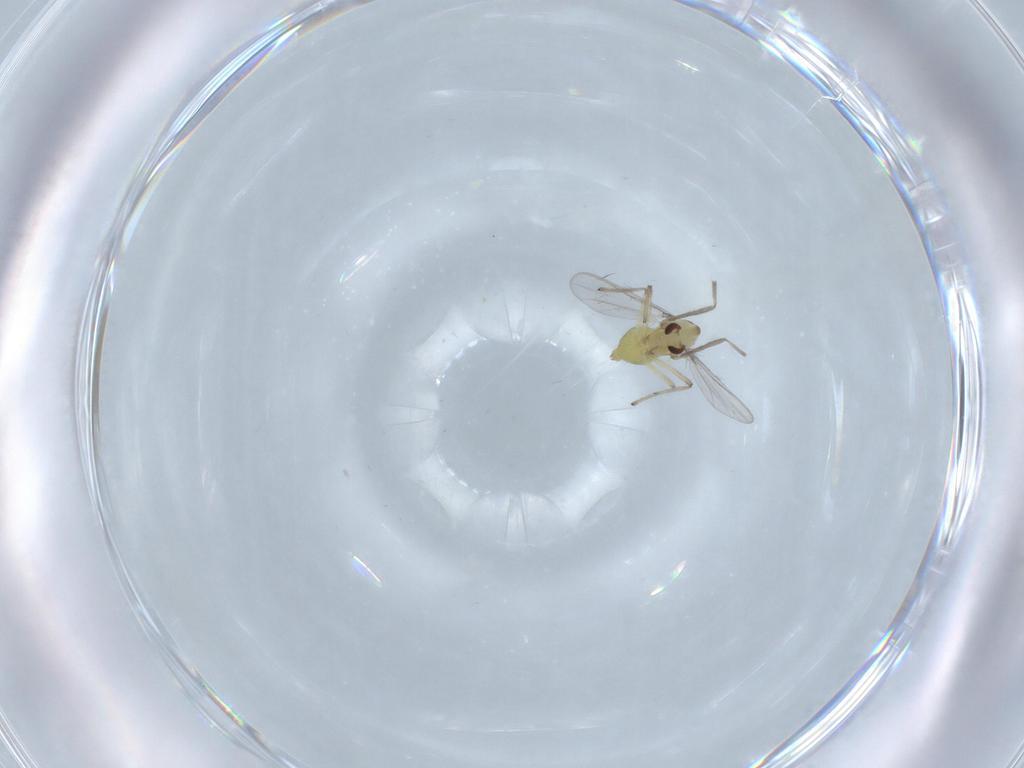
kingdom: Animalia
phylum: Arthropoda
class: Insecta
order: Diptera
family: Chironomidae
